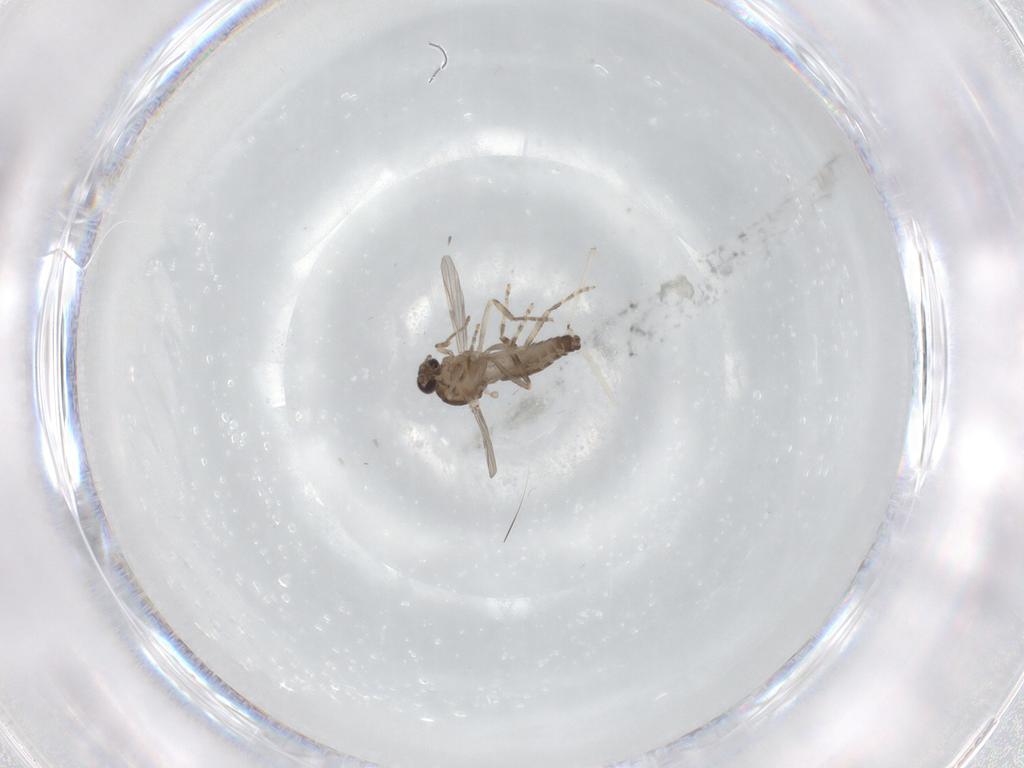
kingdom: Animalia
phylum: Arthropoda
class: Insecta
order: Diptera
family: Ceratopogonidae
